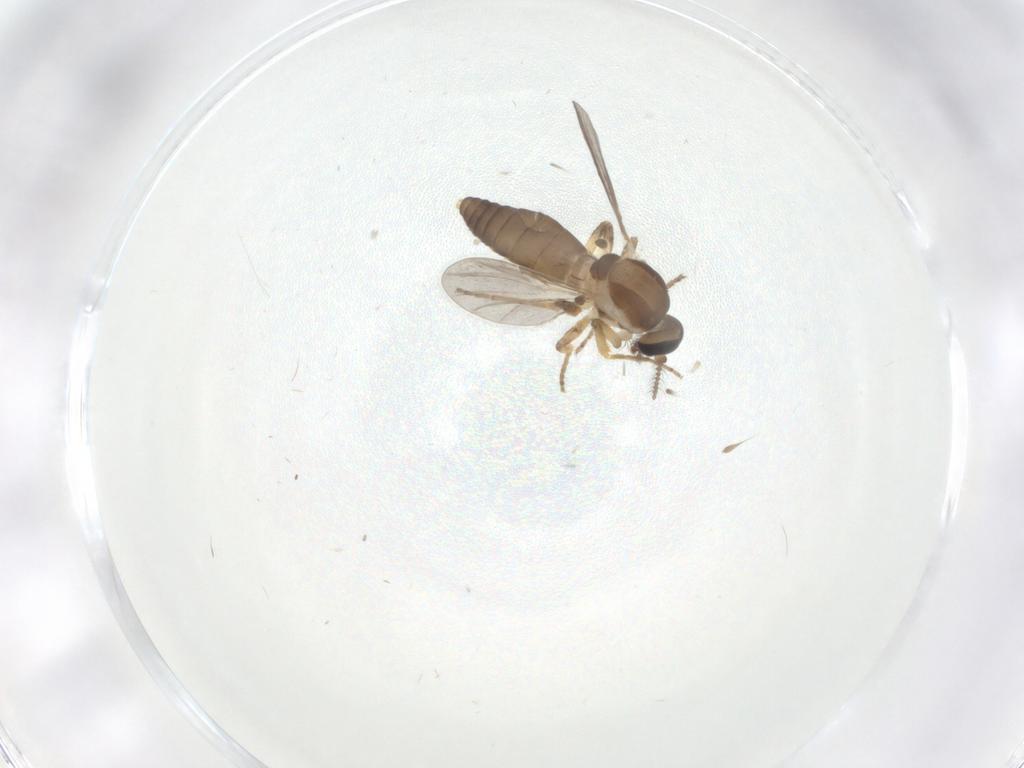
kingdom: Animalia
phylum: Arthropoda
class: Insecta
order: Diptera
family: Ceratopogonidae
